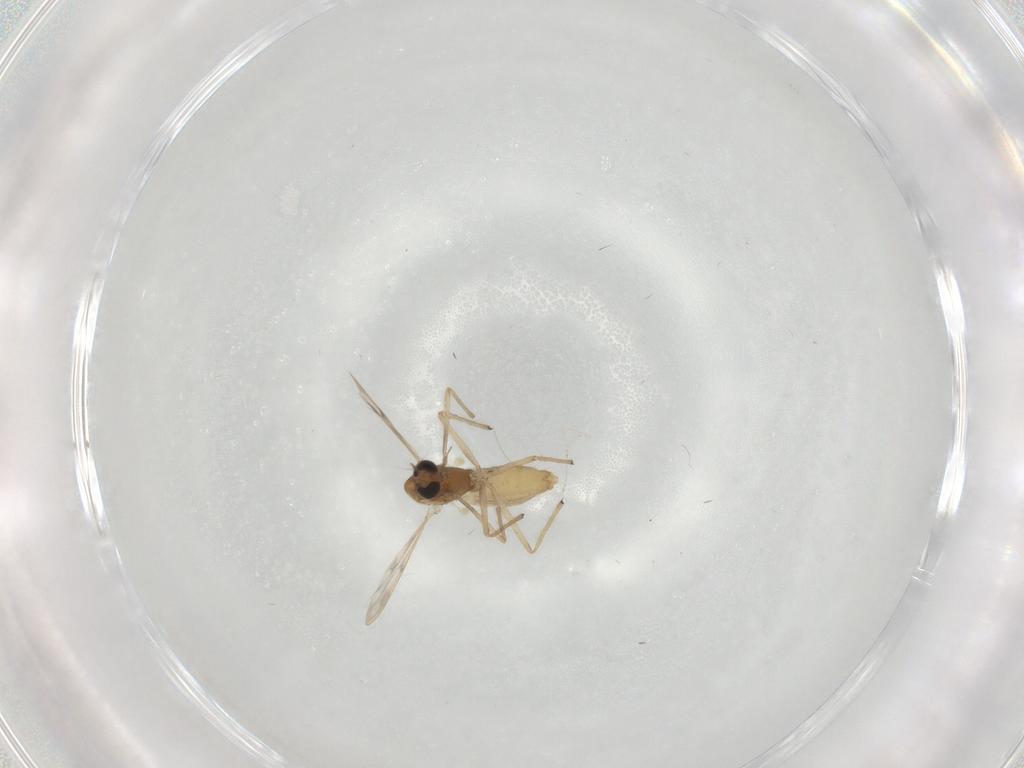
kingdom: Animalia
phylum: Arthropoda
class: Insecta
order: Diptera
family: Chironomidae
